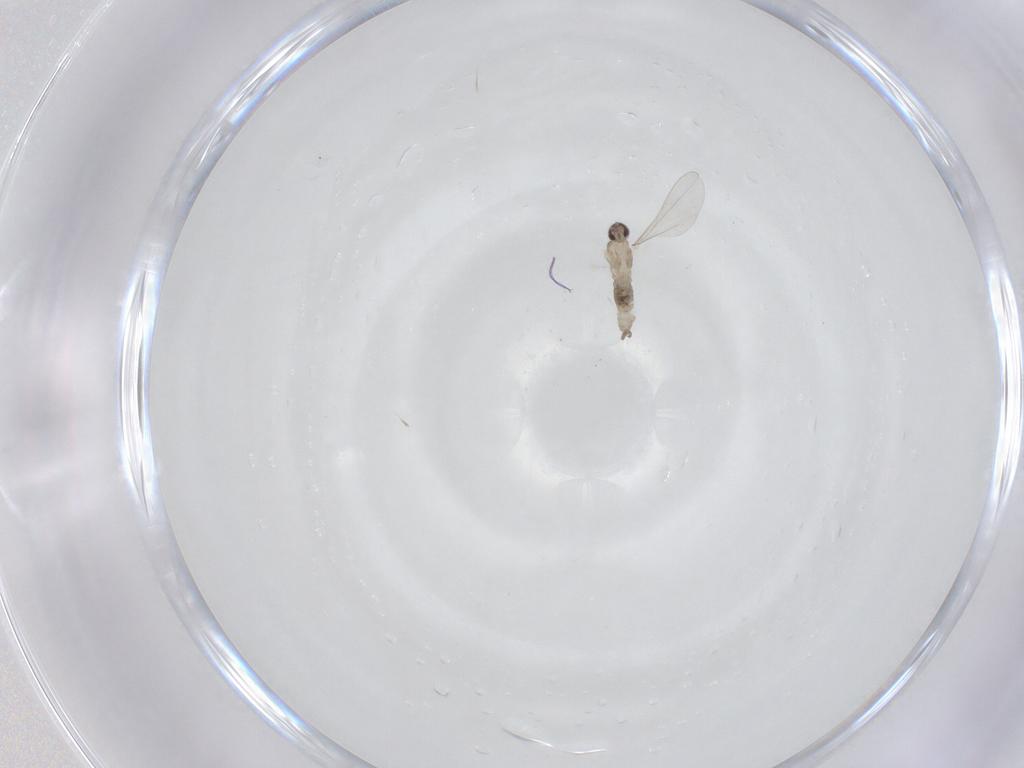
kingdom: Animalia
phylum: Arthropoda
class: Insecta
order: Diptera
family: Cecidomyiidae
